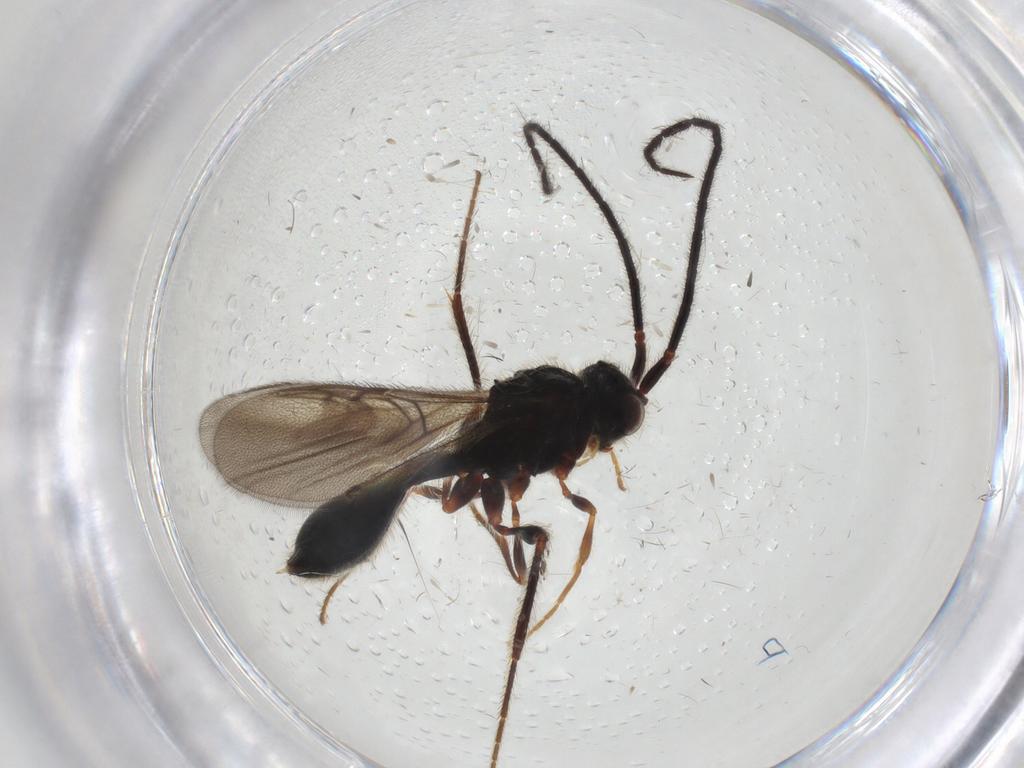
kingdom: Animalia
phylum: Arthropoda
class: Insecta
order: Hymenoptera
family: Diapriidae
